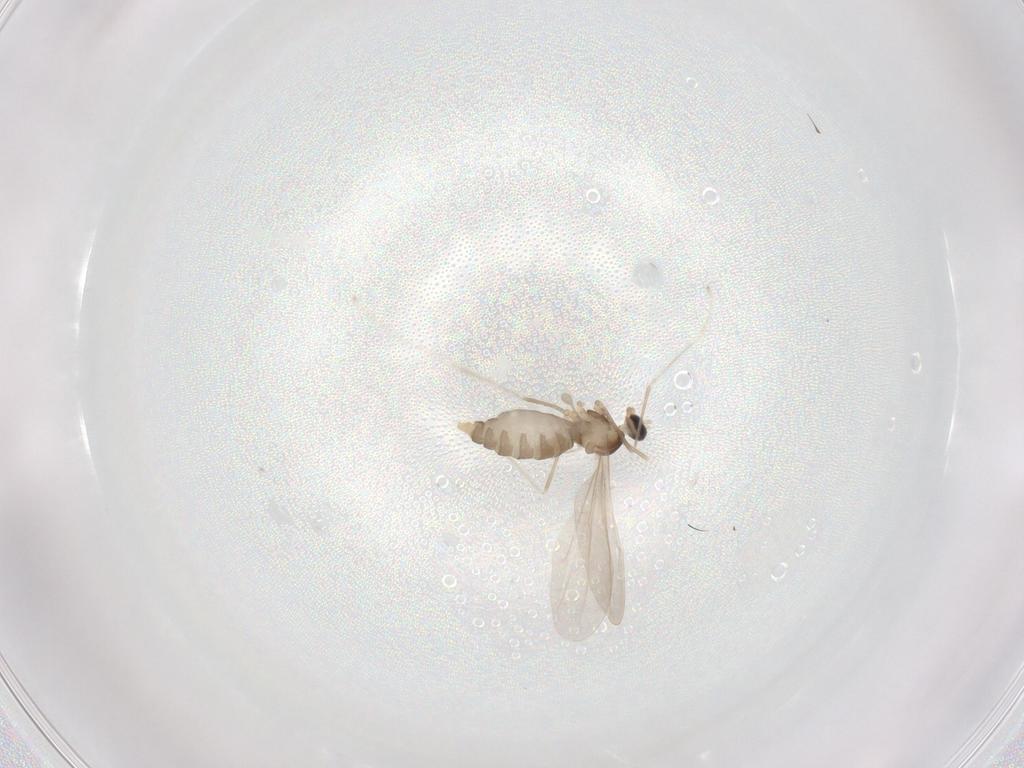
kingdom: Animalia
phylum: Arthropoda
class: Insecta
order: Diptera
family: Cecidomyiidae
